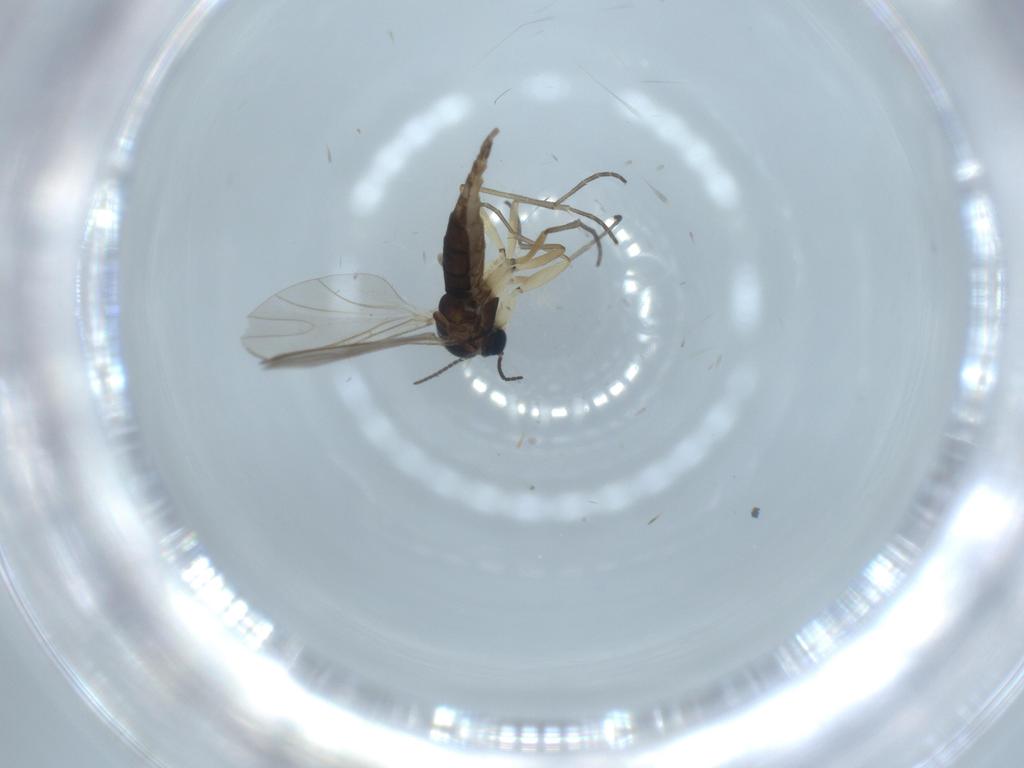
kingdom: Animalia
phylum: Arthropoda
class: Insecta
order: Diptera
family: Sciaridae
